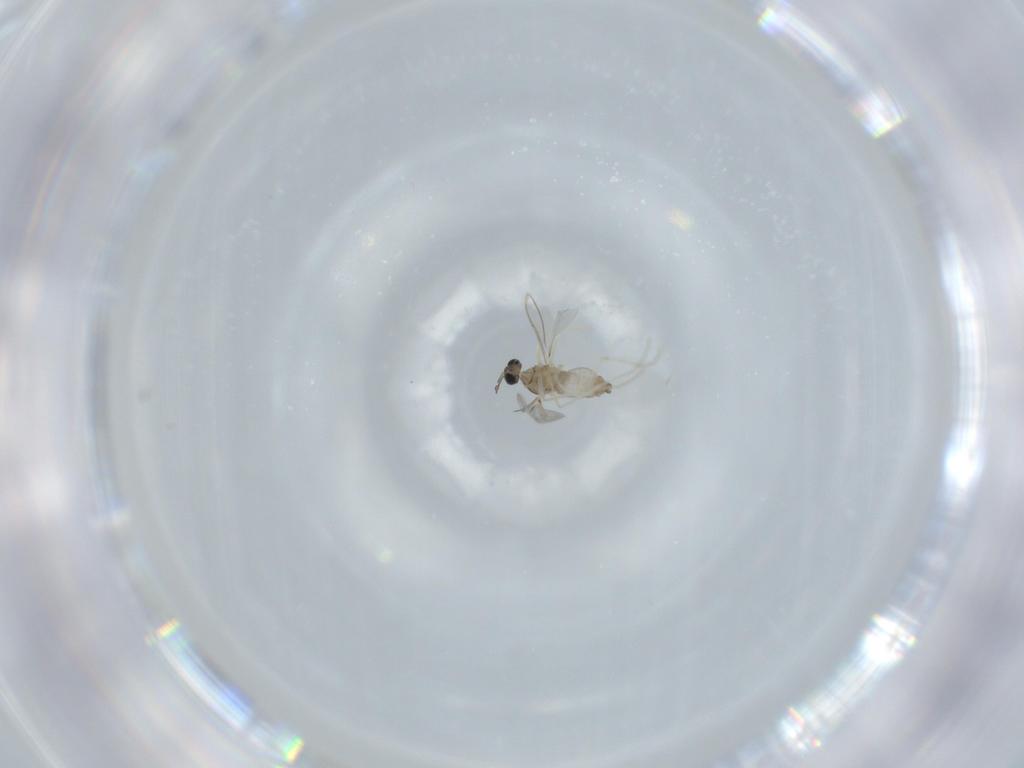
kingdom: Animalia
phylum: Arthropoda
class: Insecta
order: Diptera
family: Cecidomyiidae
